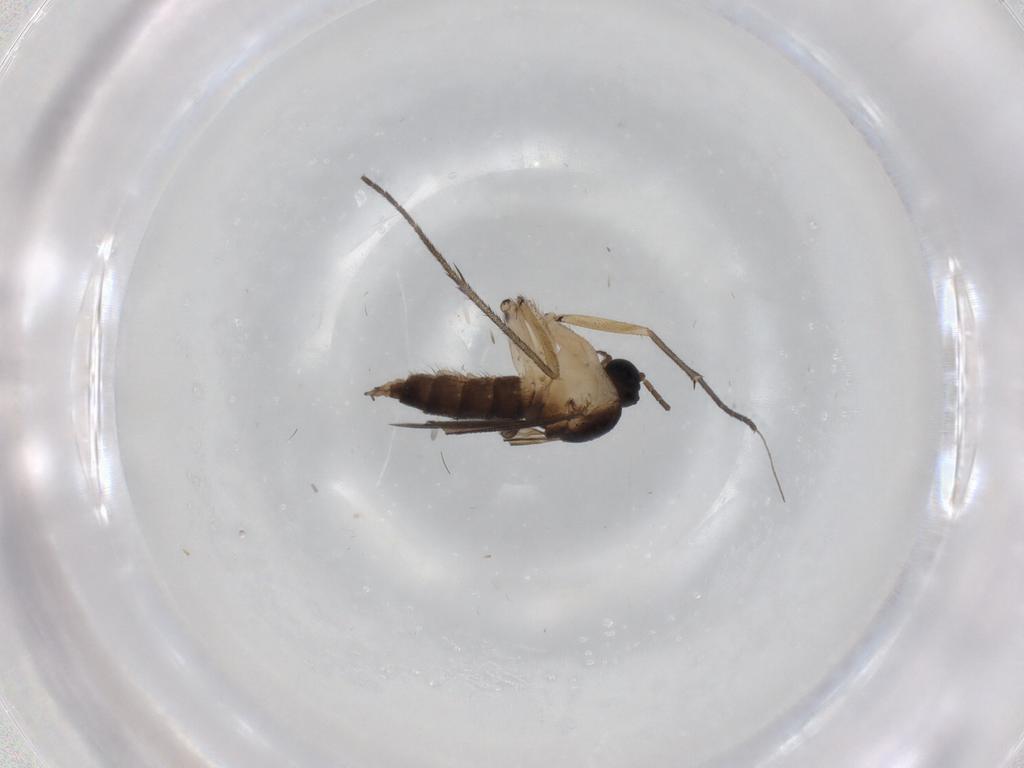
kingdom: Animalia
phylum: Arthropoda
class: Insecta
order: Diptera
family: Sciaridae
